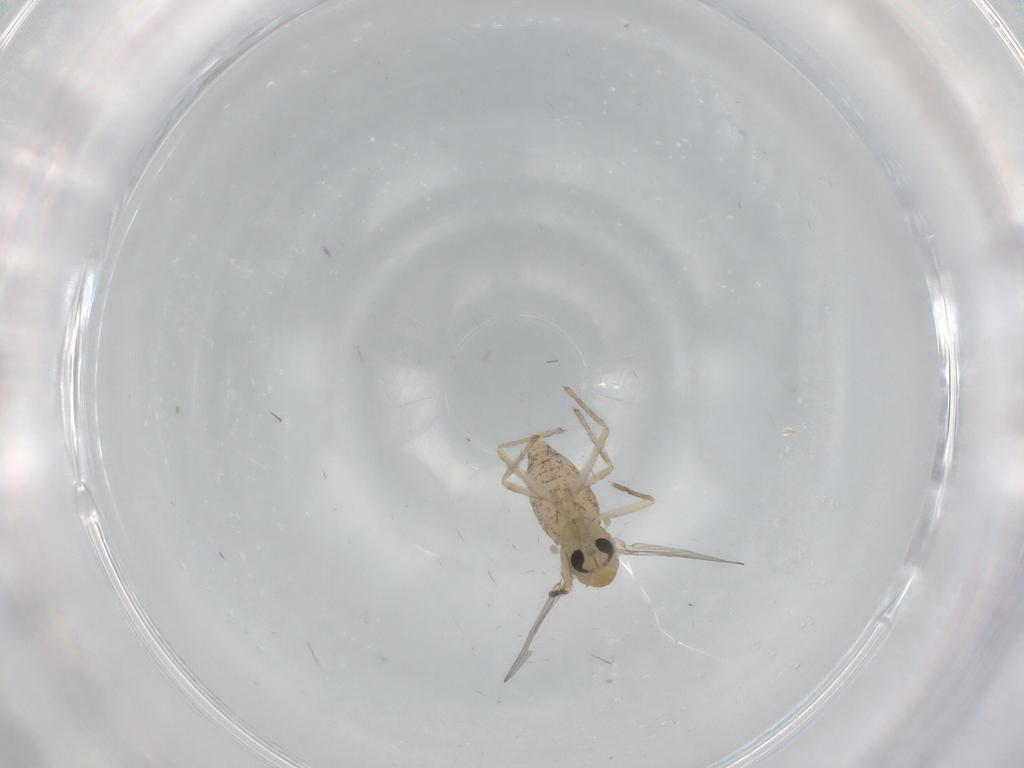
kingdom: Animalia
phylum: Arthropoda
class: Insecta
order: Diptera
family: Chironomidae
